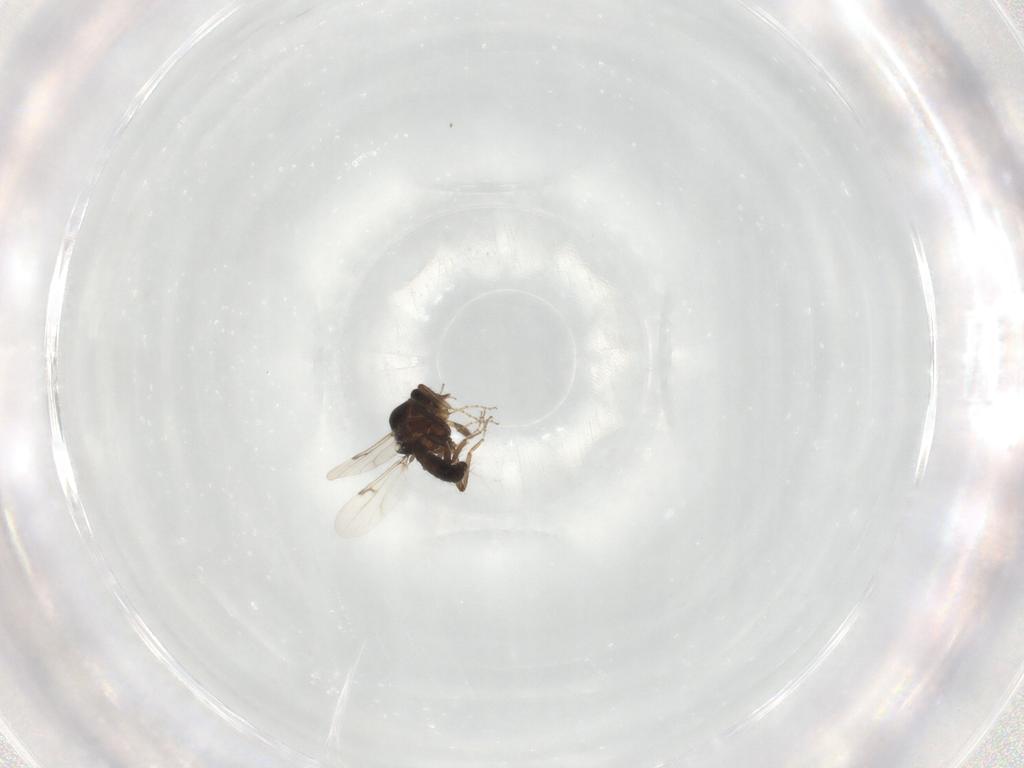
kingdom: Animalia
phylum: Arthropoda
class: Insecta
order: Diptera
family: Ceratopogonidae
